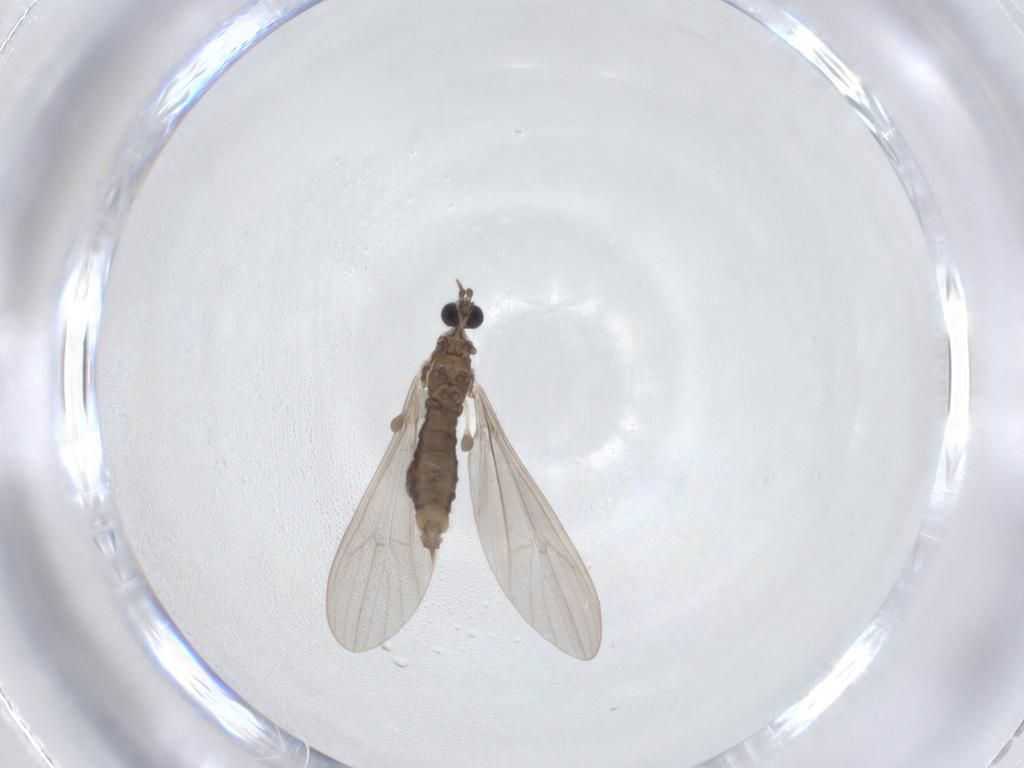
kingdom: Animalia
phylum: Arthropoda
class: Insecta
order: Diptera
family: Limoniidae
